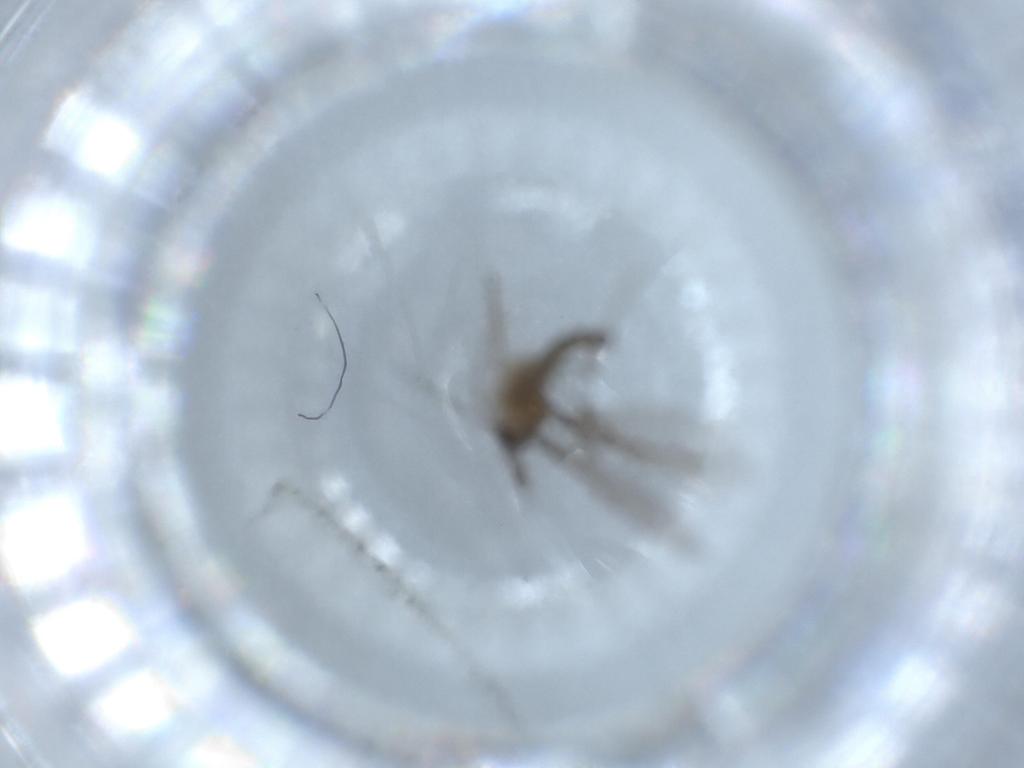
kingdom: Animalia
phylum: Arthropoda
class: Insecta
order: Diptera
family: Cecidomyiidae
